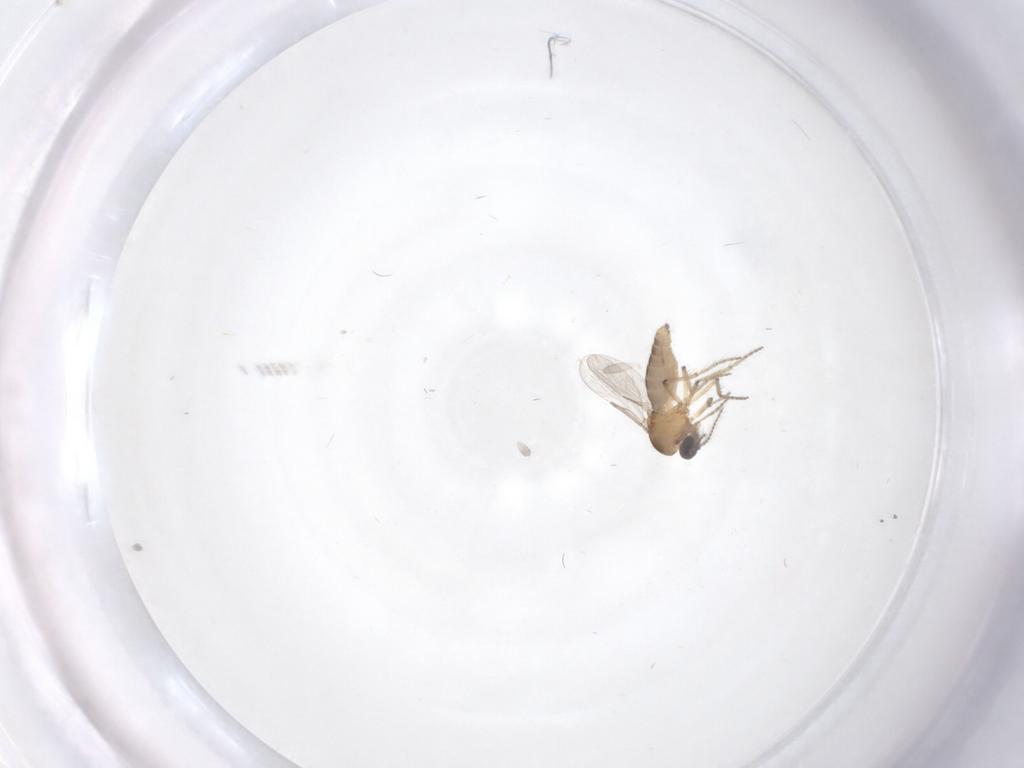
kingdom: Animalia
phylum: Arthropoda
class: Insecta
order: Diptera
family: Ceratopogonidae
